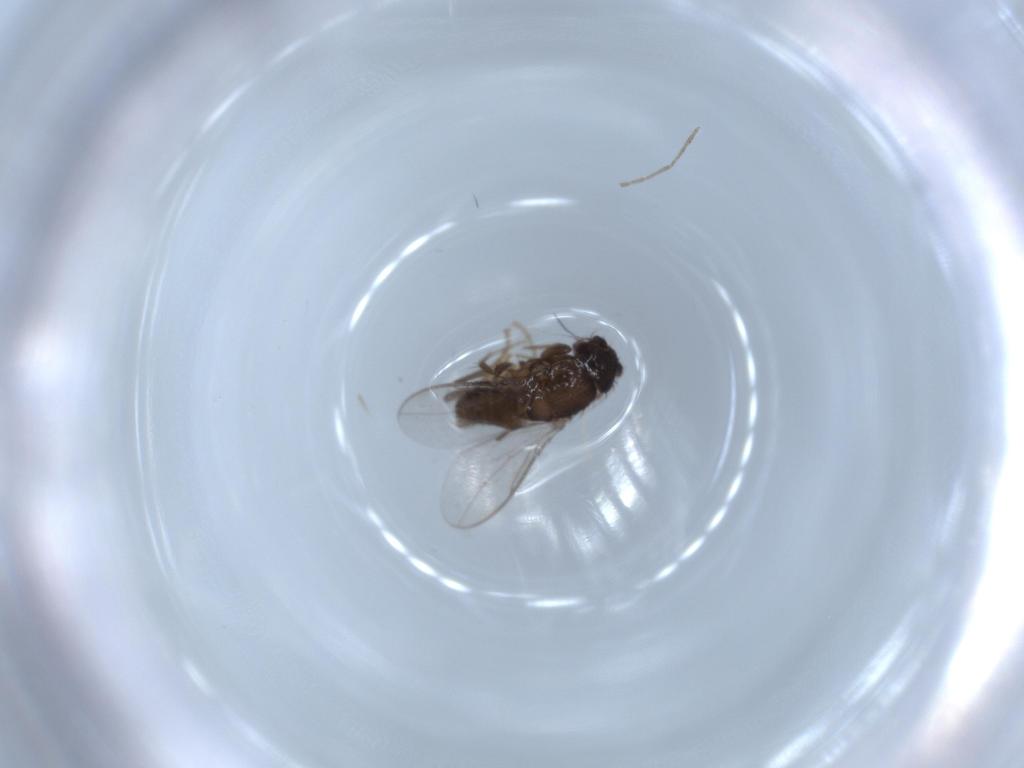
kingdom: Animalia
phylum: Arthropoda
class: Insecta
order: Diptera
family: Sphaeroceridae
